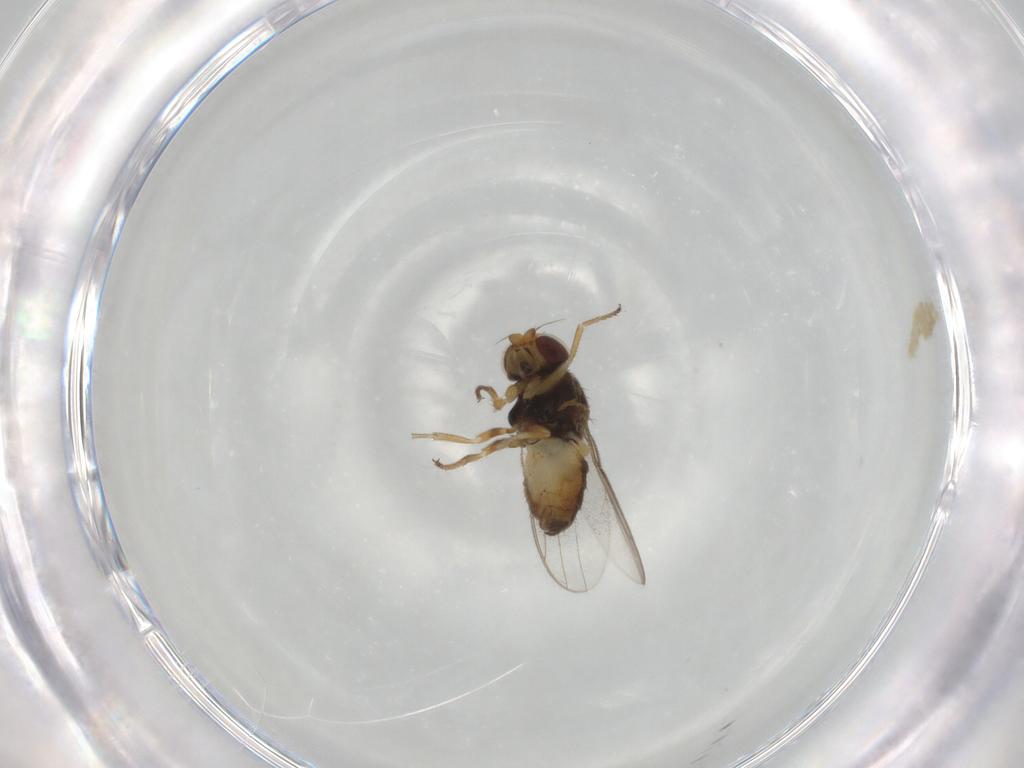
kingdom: Animalia
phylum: Arthropoda
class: Insecta
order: Diptera
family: Chloropidae
